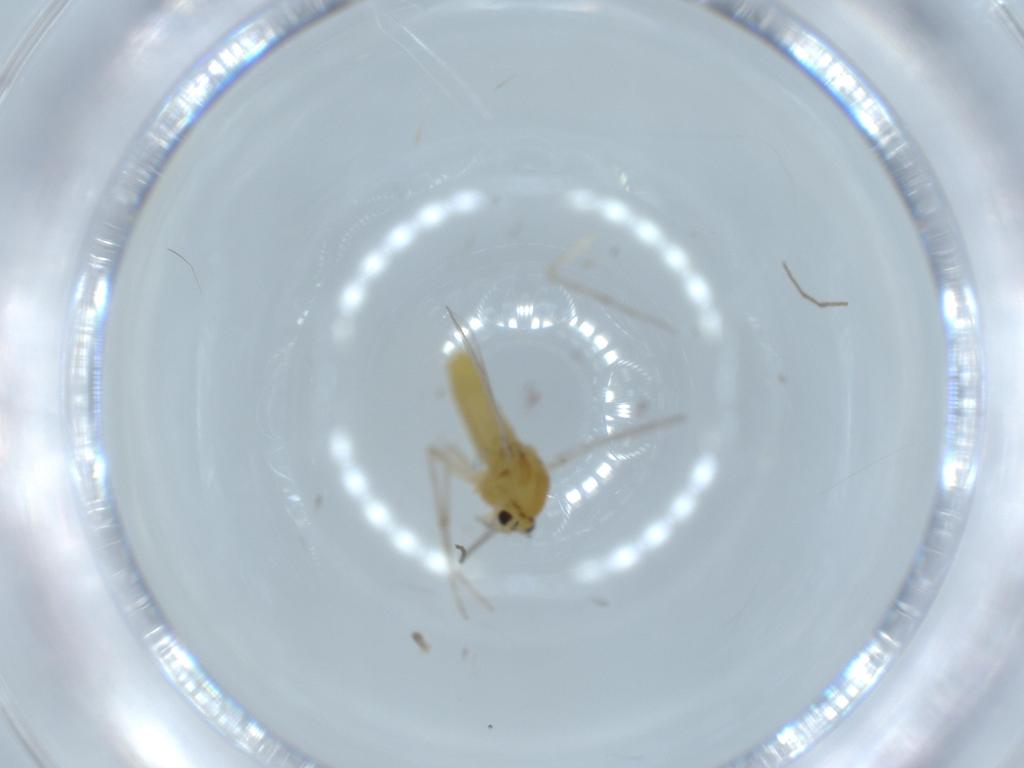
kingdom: Animalia
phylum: Arthropoda
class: Insecta
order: Diptera
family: Chironomidae
